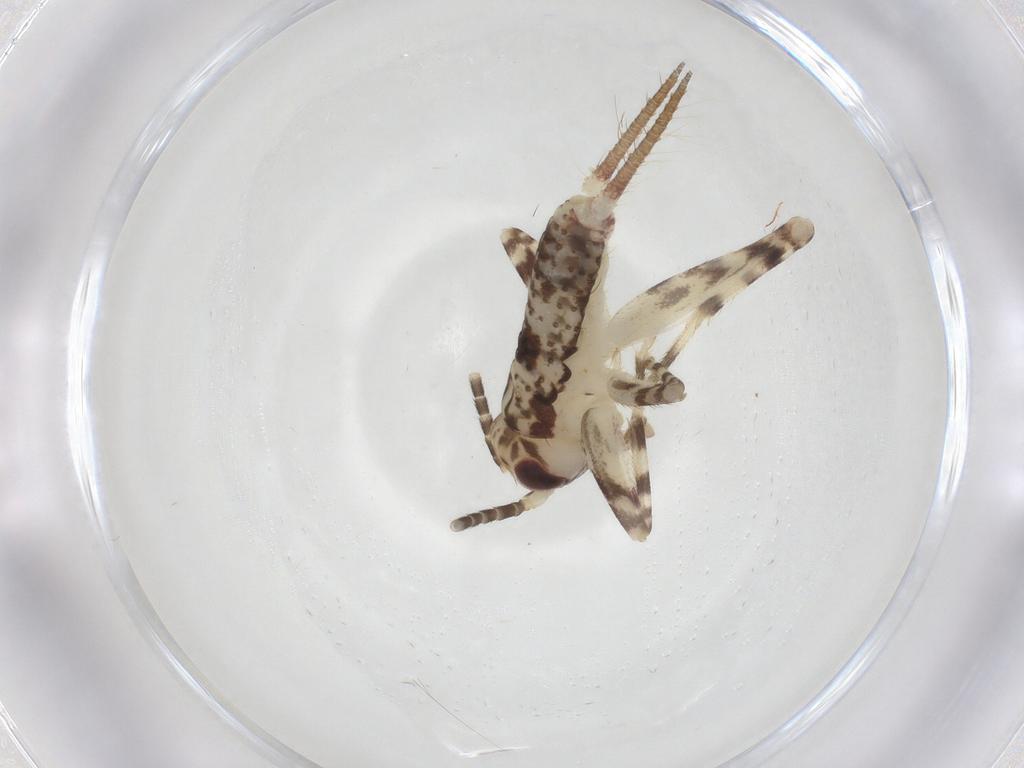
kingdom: Animalia
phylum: Arthropoda
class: Insecta
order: Orthoptera
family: Gryllidae
